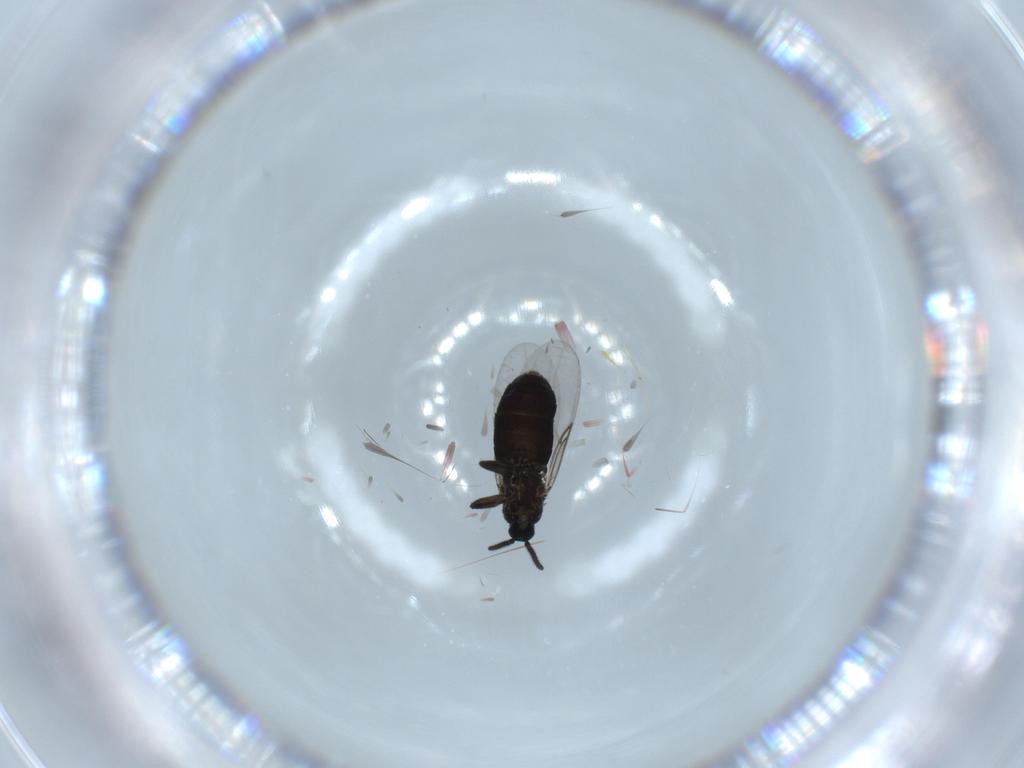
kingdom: Animalia
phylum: Arthropoda
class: Insecta
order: Diptera
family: Scatopsidae
